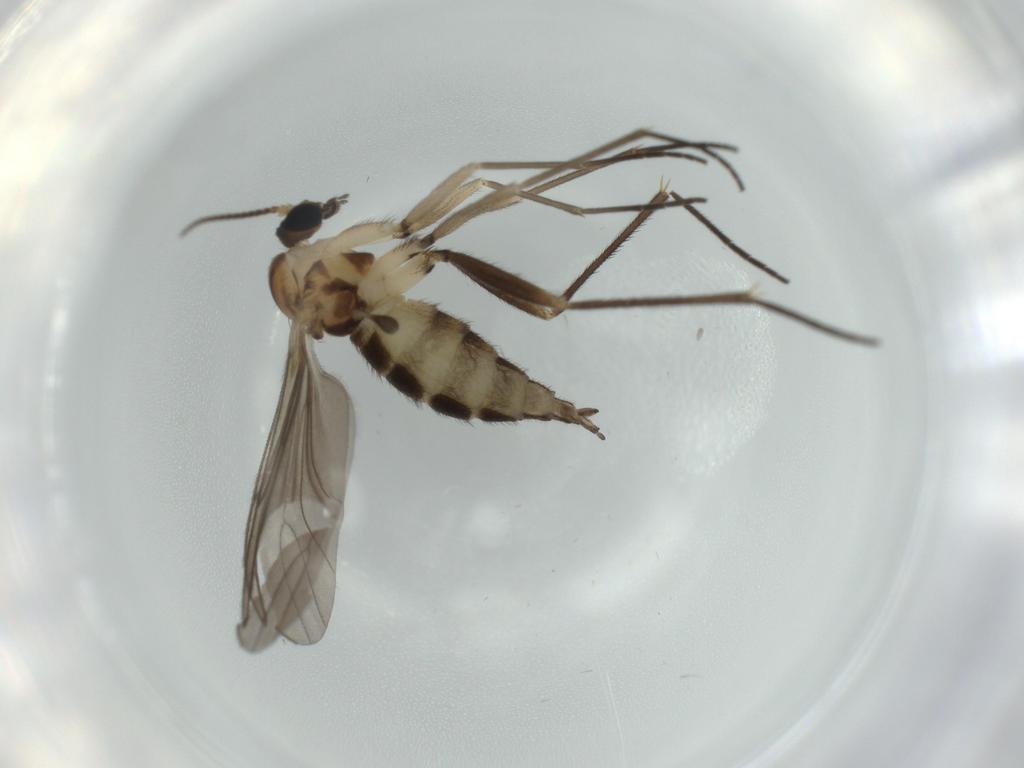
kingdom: Animalia
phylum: Arthropoda
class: Insecta
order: Diptera
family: Sciaridae
